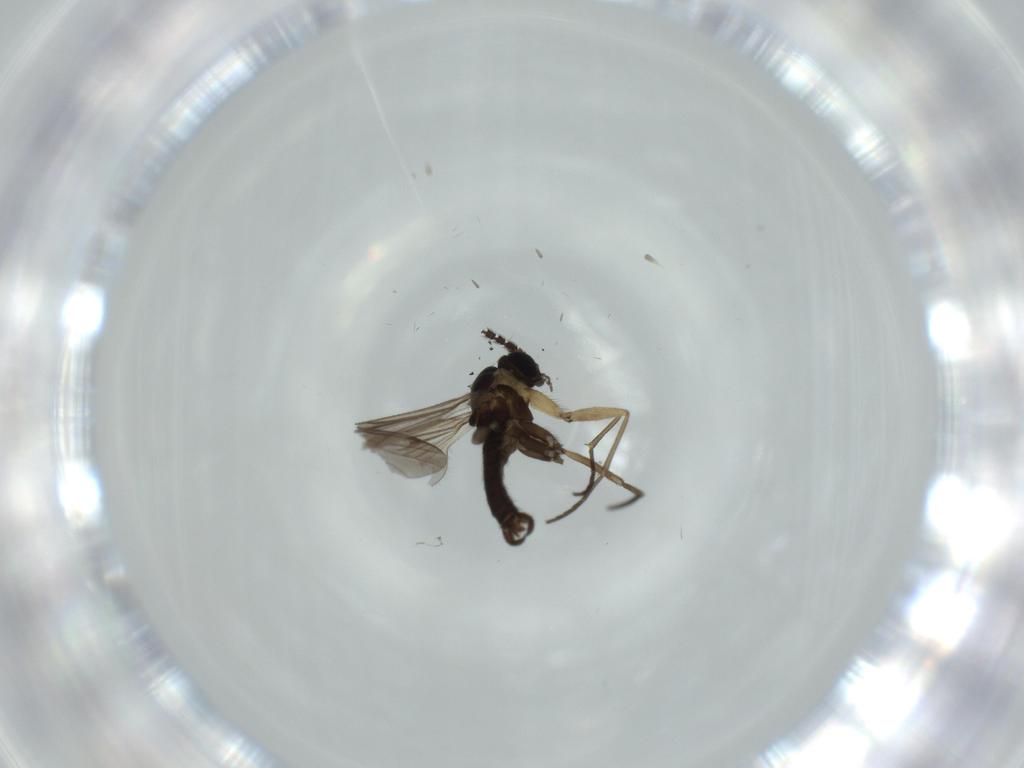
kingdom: Animalia
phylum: Arthropoda
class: Insecta
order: Diptera
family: Sciaridae
